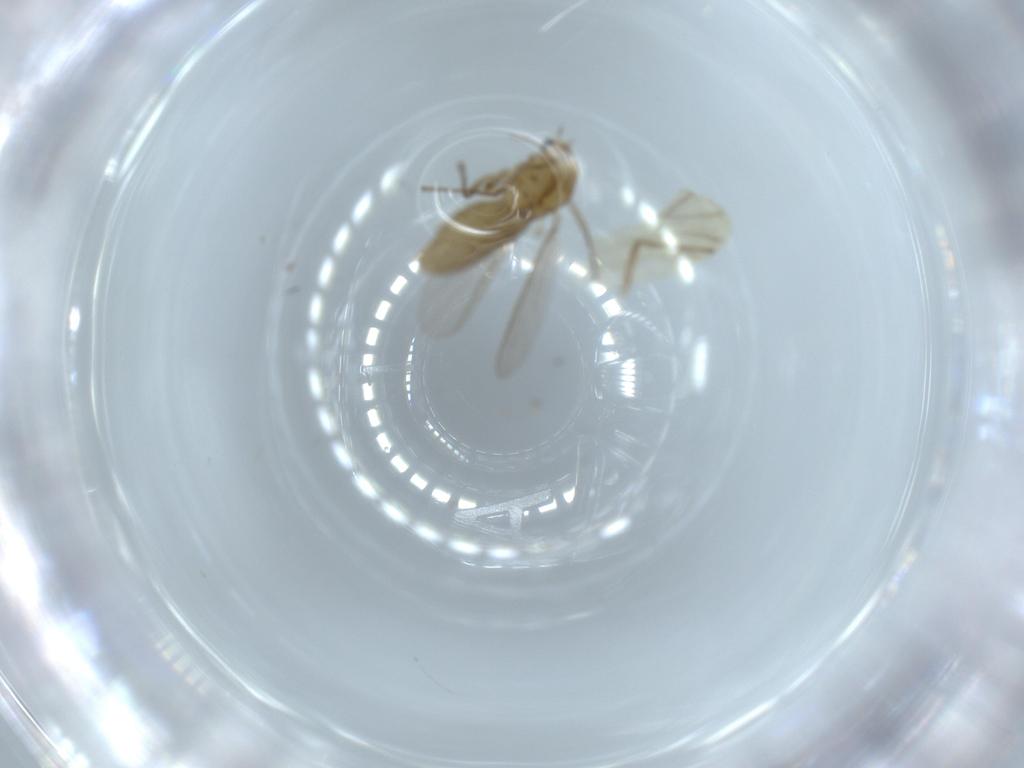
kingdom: Animalia
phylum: Arthropoda
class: Insecta
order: Diptera
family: Chironomidae
